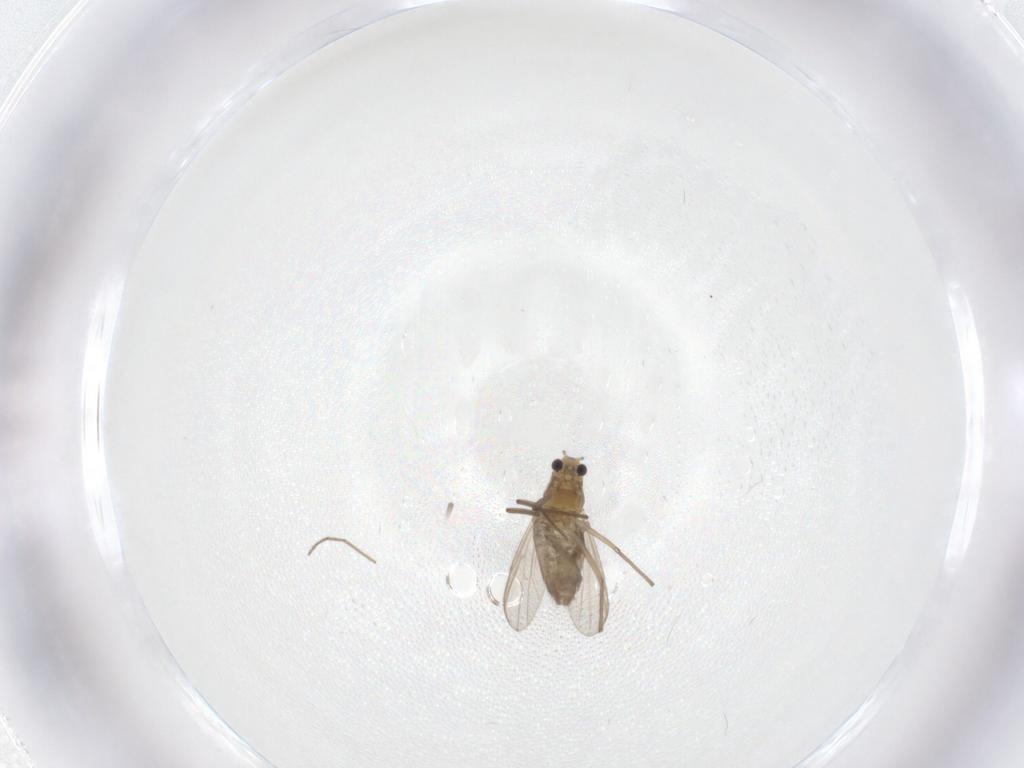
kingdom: Animalia
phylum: Arthropoda
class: Insecta
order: Diptera
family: Chironomidae
